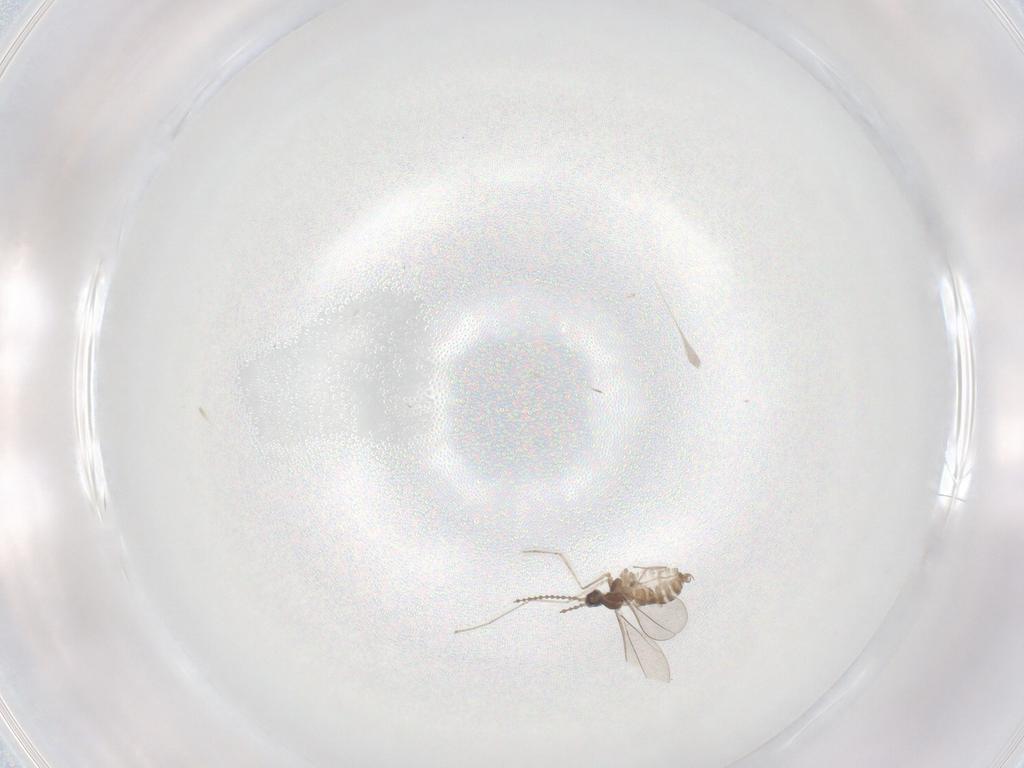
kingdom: Animalia
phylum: Arthropoda
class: Insecta
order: Diptera
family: Cecidomyiidae
